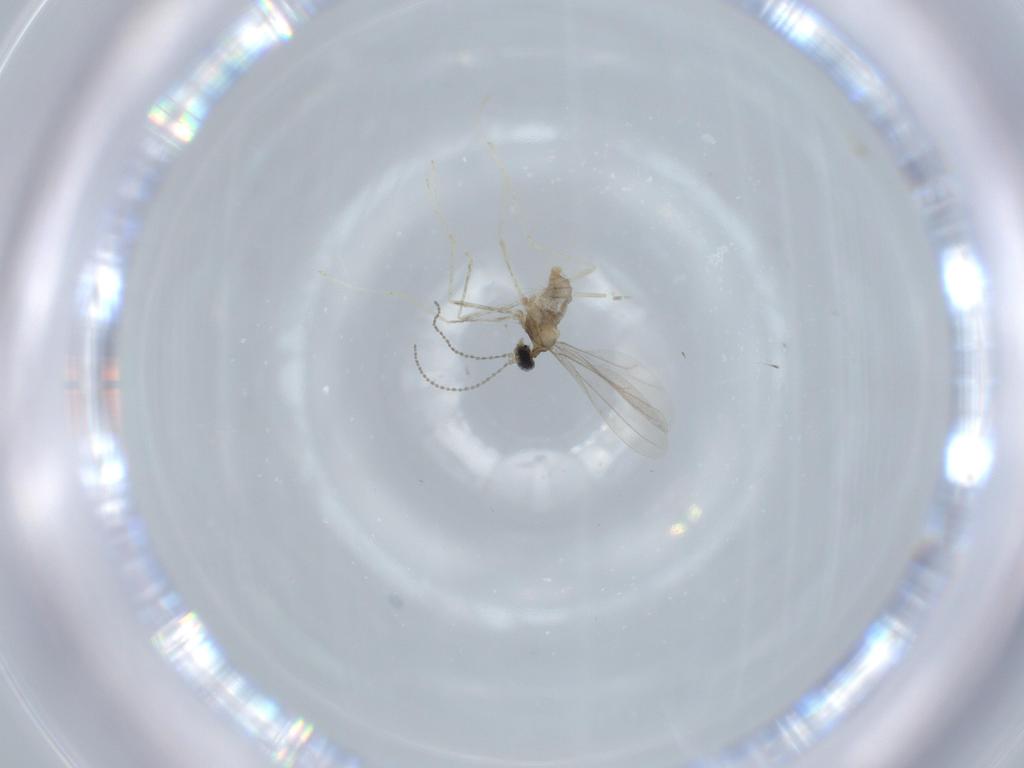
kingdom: Animalia
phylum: Arthropoda
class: Insecta
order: Diptera
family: Cecidomyiidae
